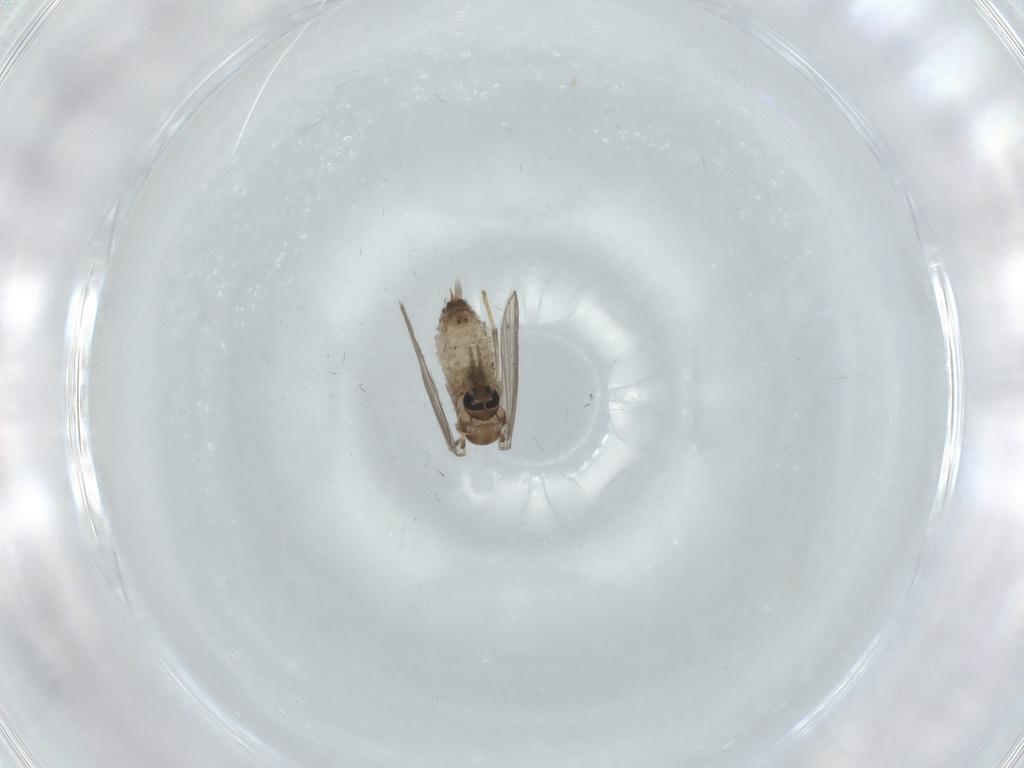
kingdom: Animalia
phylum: Arthropoda
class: Insecta
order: Diptera
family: Psychodidae
